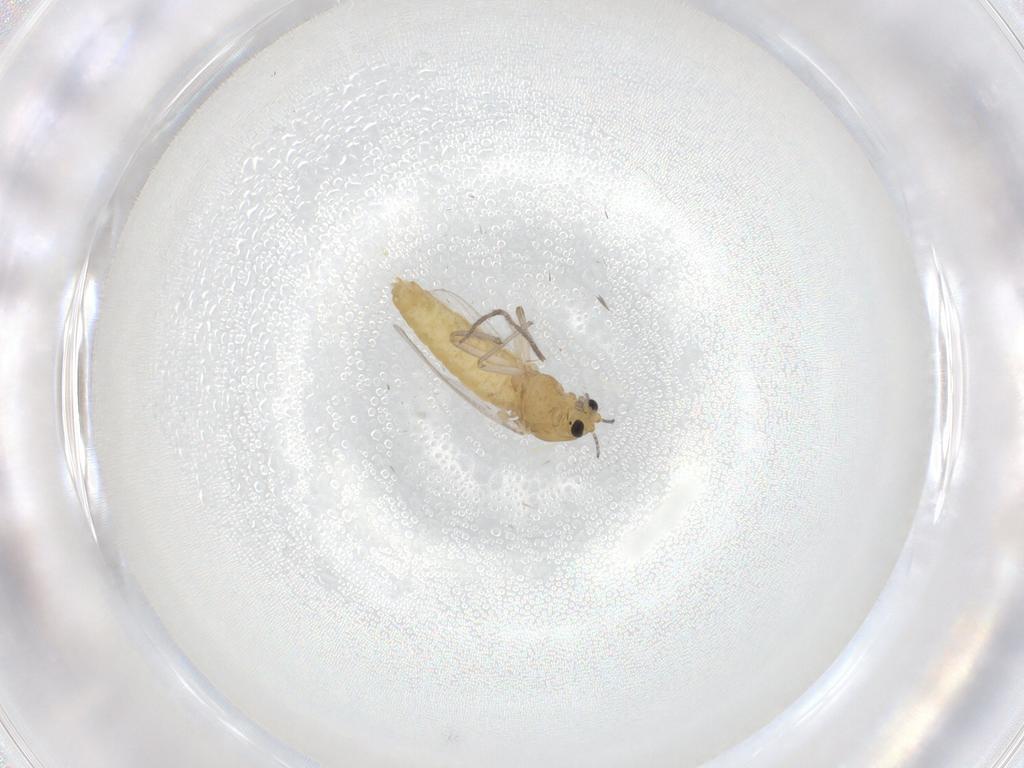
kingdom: Animalia
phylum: Arthropoda
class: Insecta
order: Diptera
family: Chironomidae
